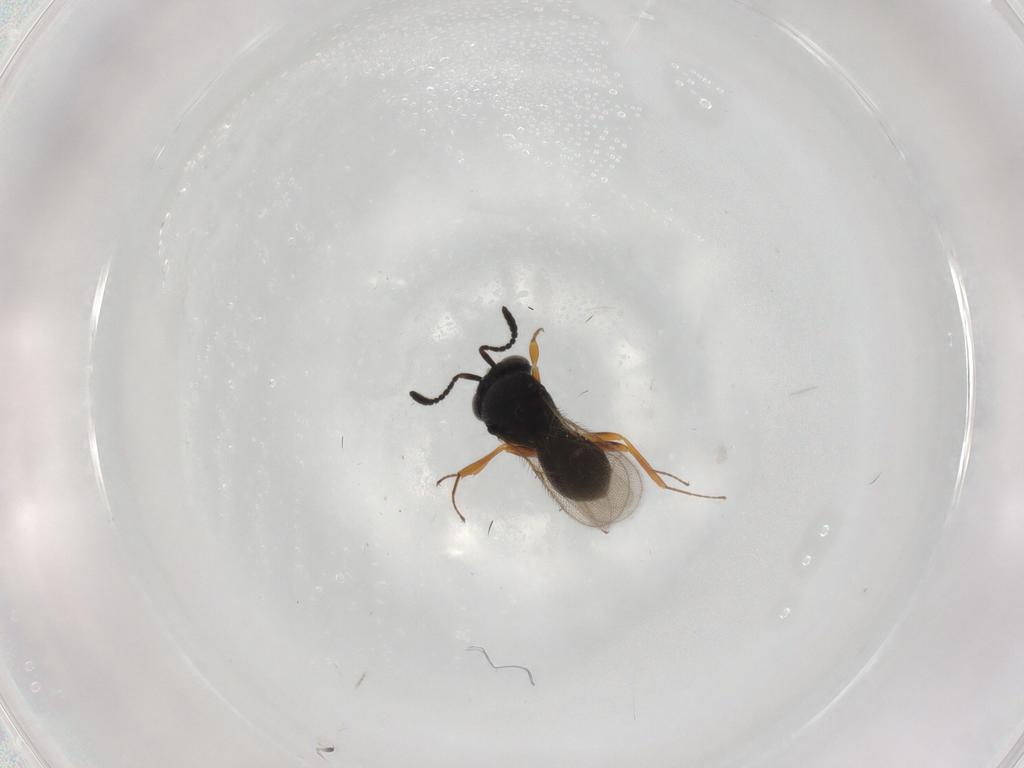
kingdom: Animalia
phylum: Arthropoda
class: Insecta
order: Hymenoptera
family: Scelionidae
